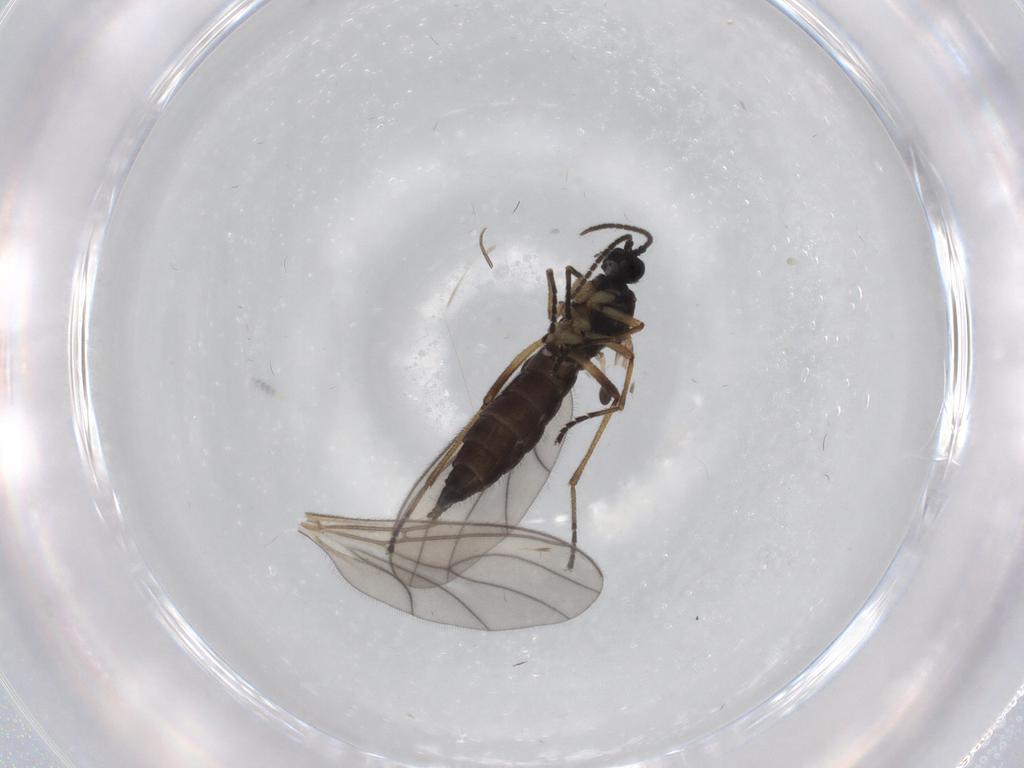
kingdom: Animalia
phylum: Arthropoda
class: Insecta
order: Diptera
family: Sciaridae
